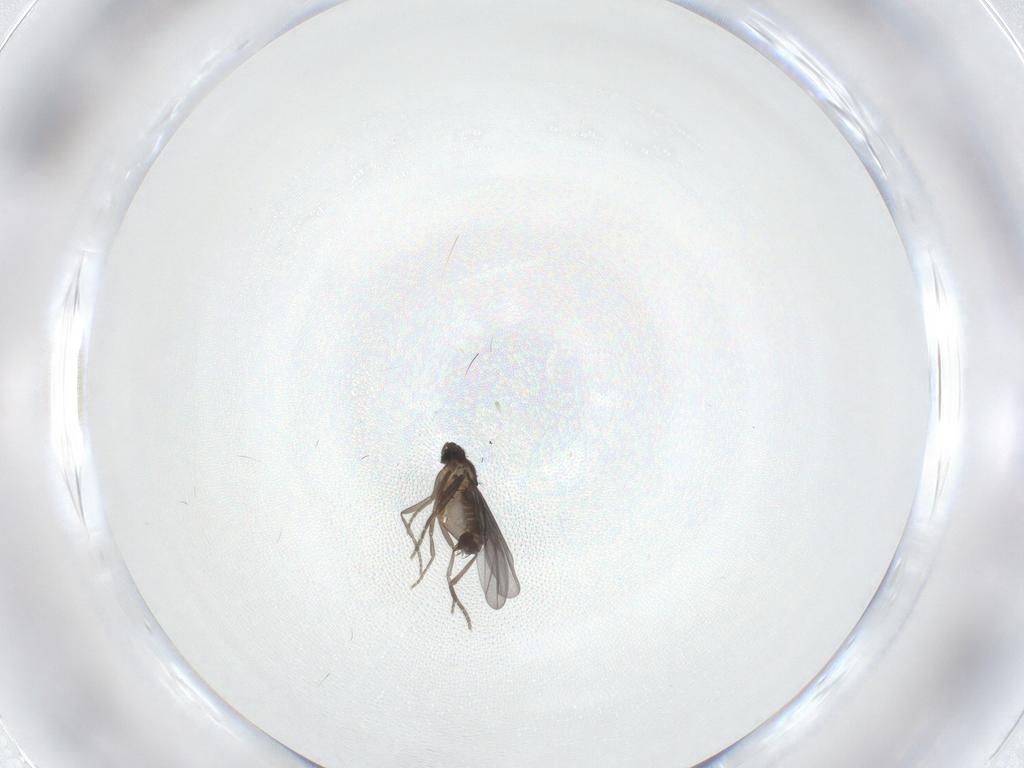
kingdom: Animalia
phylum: Arthropoda
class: Insecta
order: Diptera
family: Phoridae
